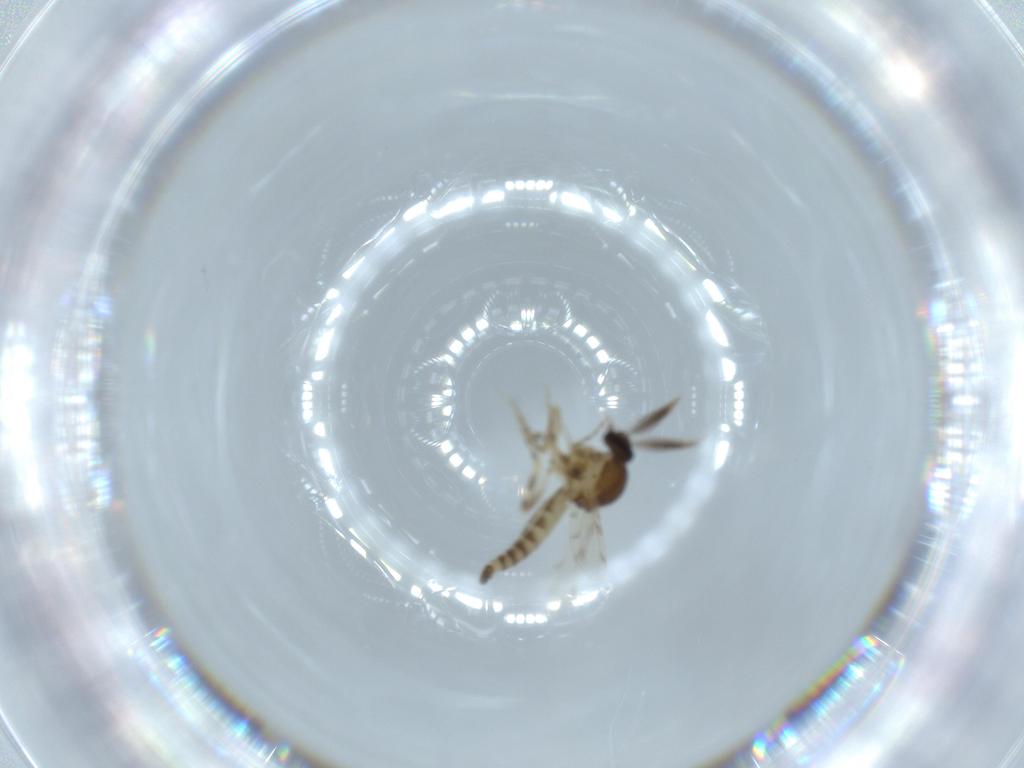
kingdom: Animalia
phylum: Arthropoda
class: Insecta
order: Diptera
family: Ceratopogonidae
